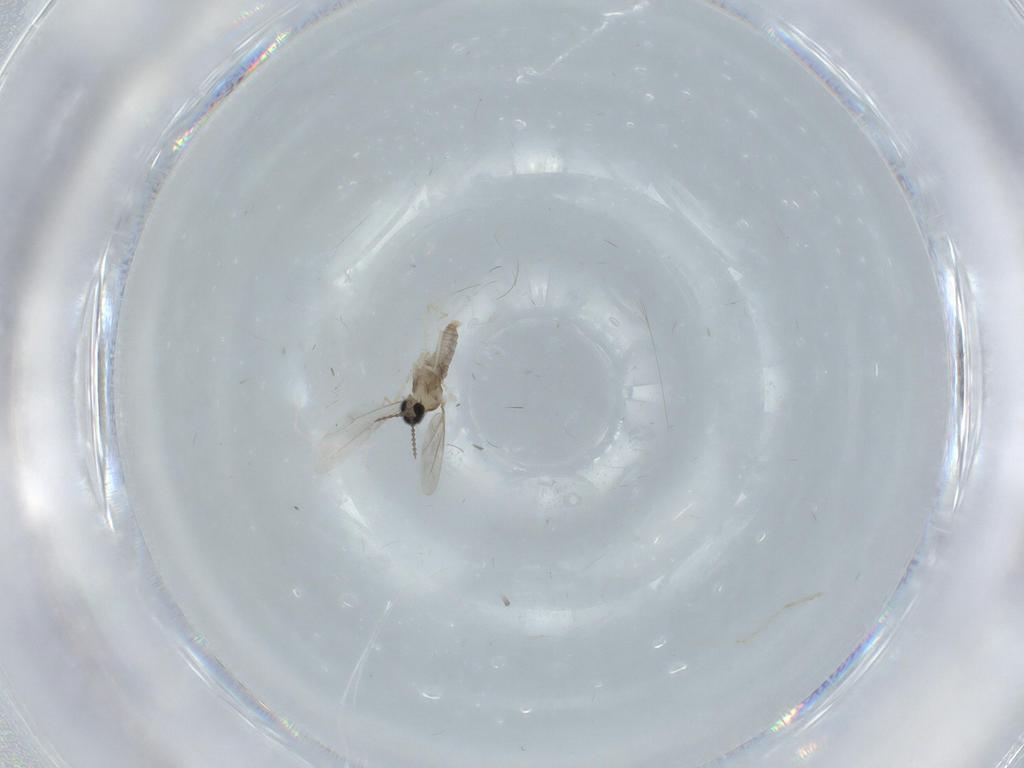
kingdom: Animalia
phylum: Arthropoda
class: Insecta
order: Diptera
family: Cecidomyiidae
